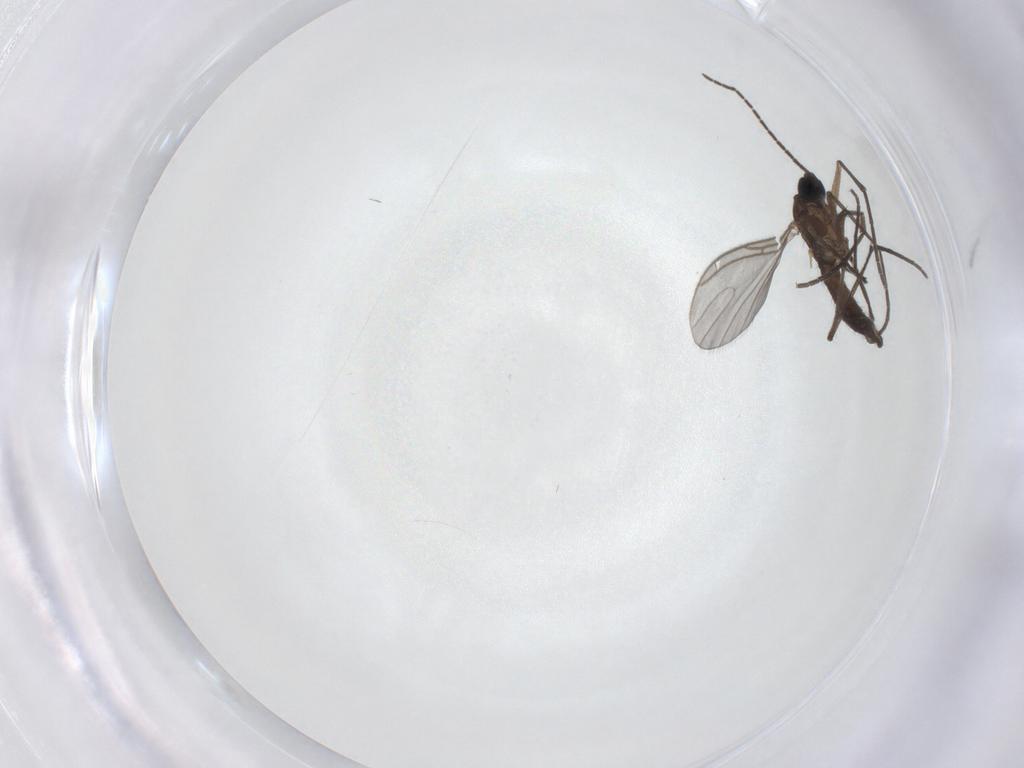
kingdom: Animalia
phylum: Arthropoda
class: Insecta
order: Diptera
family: Sciaridae
